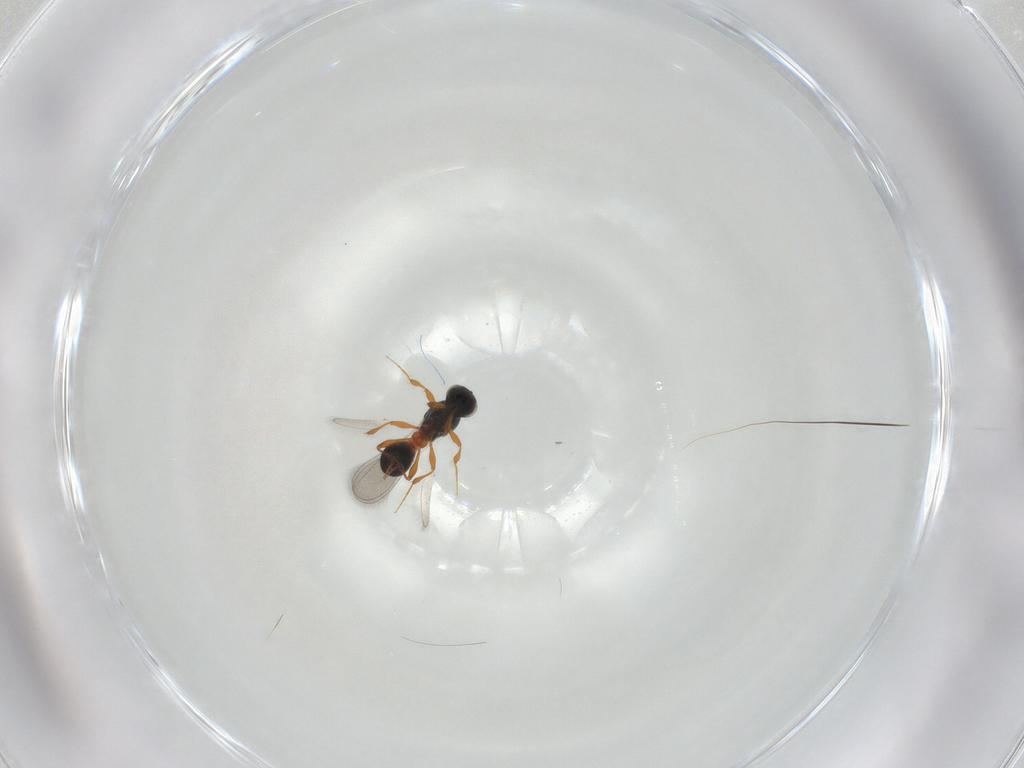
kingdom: Animalia
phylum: Arthropoda
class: Insecta
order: Hymenoptera
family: Platygastridae
